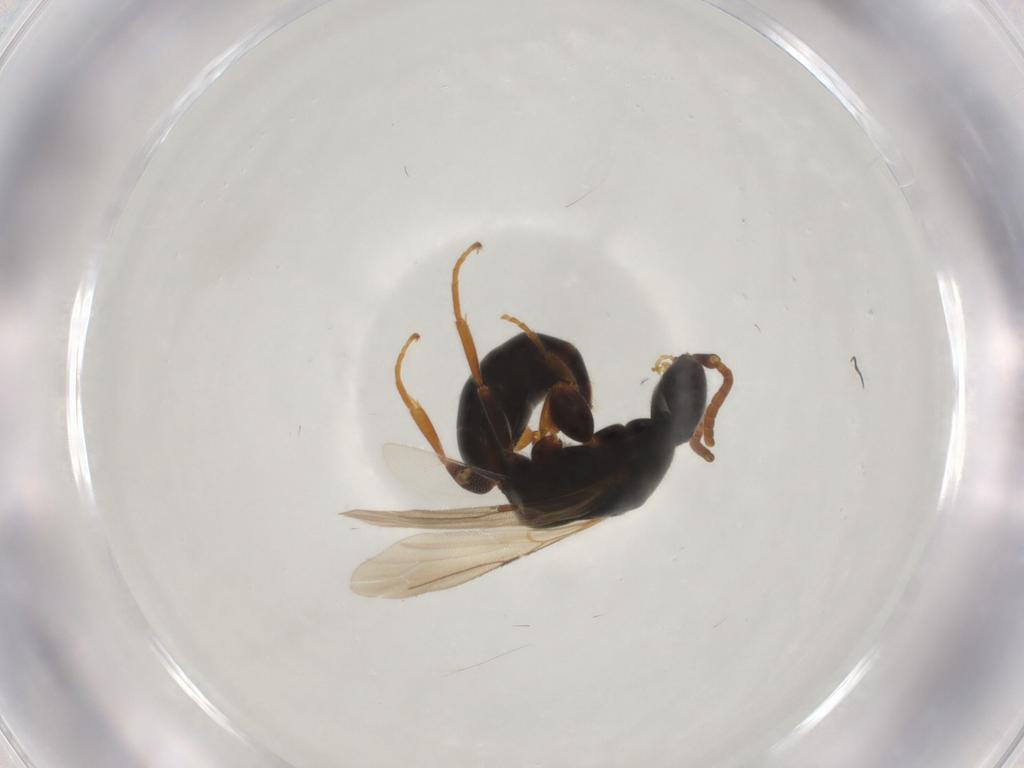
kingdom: Animalia
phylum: Arthropoda
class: Insecta
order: Hymenoptera
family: Bethylidae
